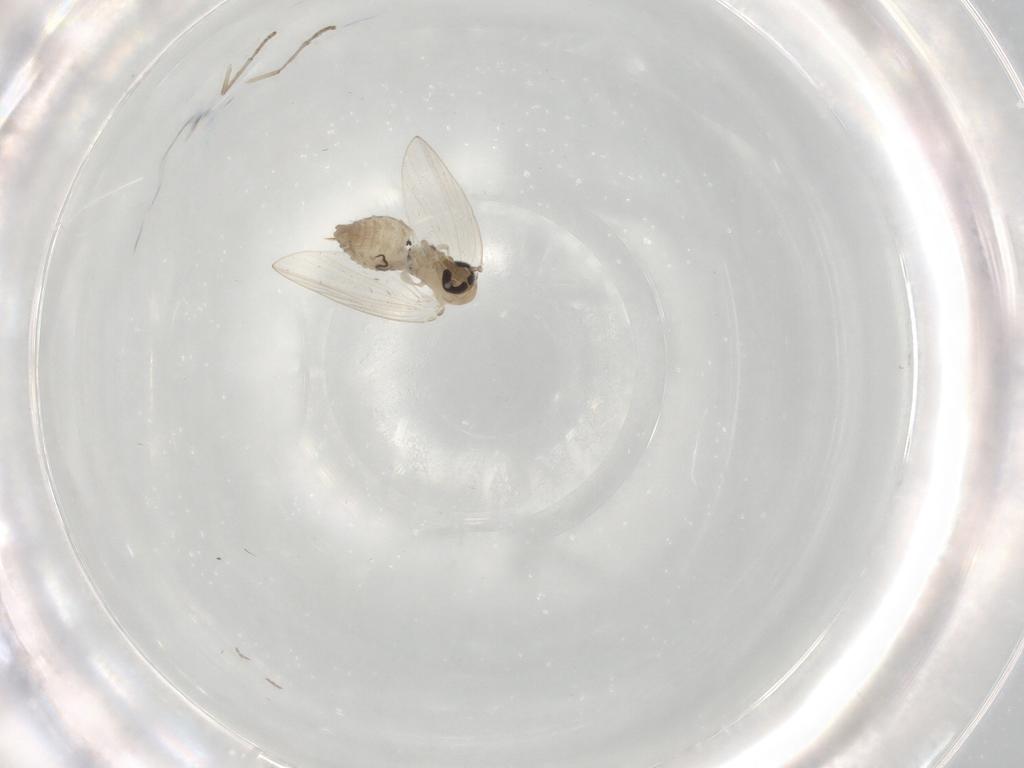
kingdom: Animalia
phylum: Arthropoda
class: Insecta
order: Diptera
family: Psychodidae
